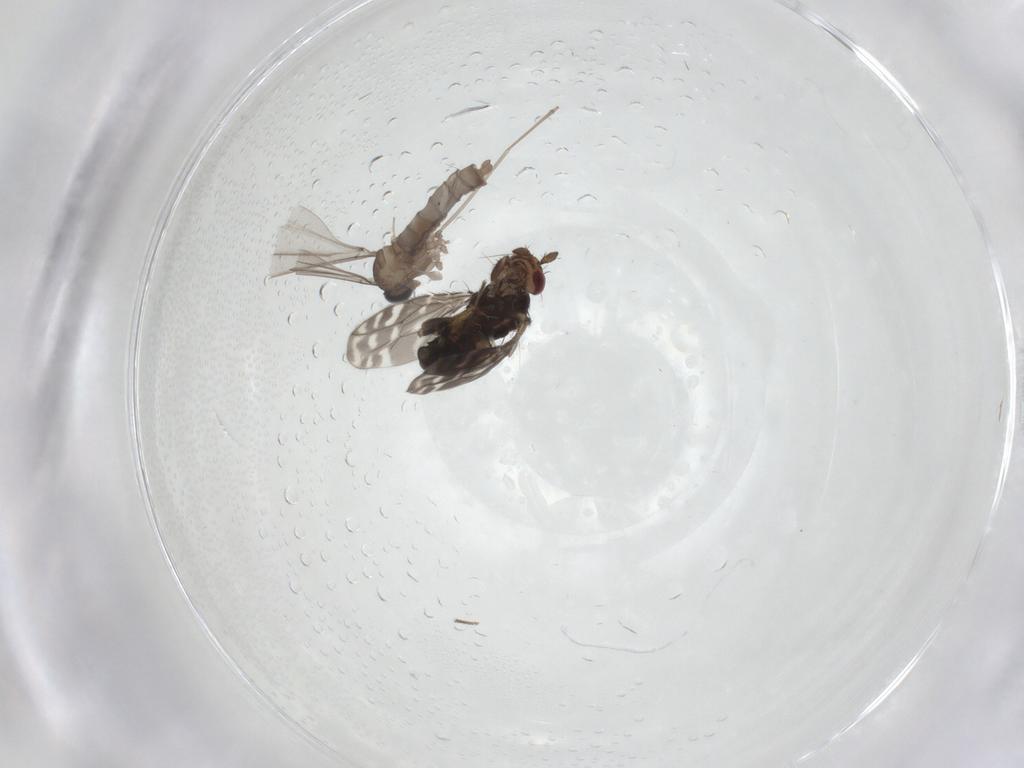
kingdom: Animalia
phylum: Arthropoda
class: Insecta
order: Diptera
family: Sphaeroceridae
